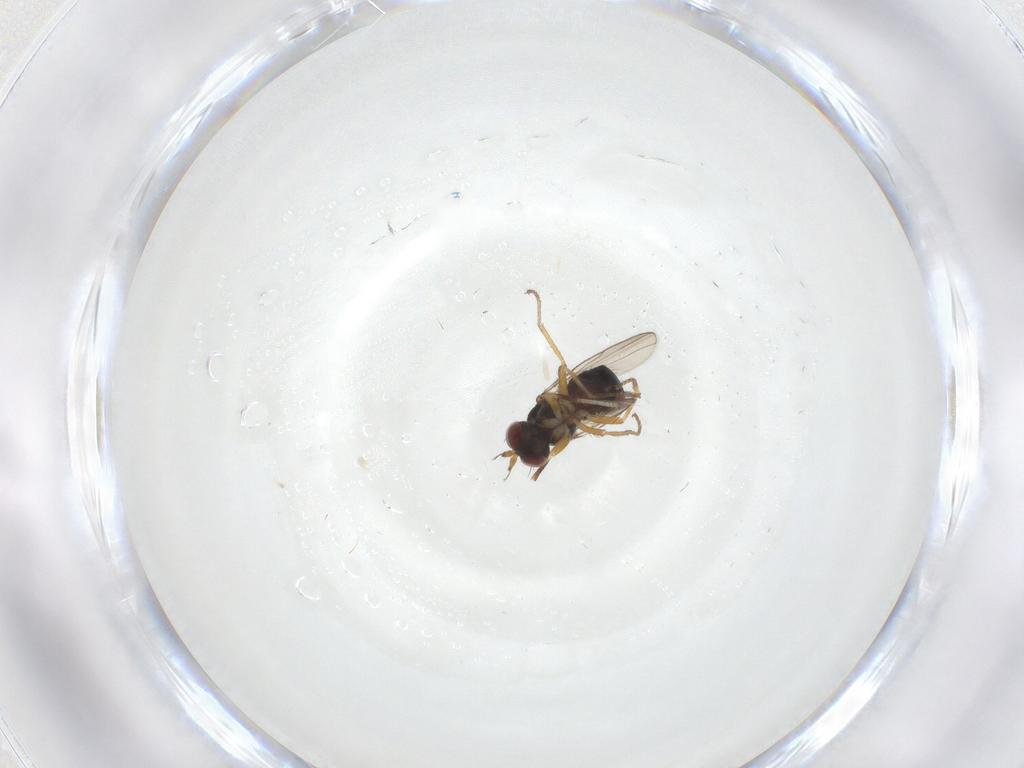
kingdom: Animalia
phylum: Arthropoda
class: Insecta
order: Diptera
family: Ephydridae
